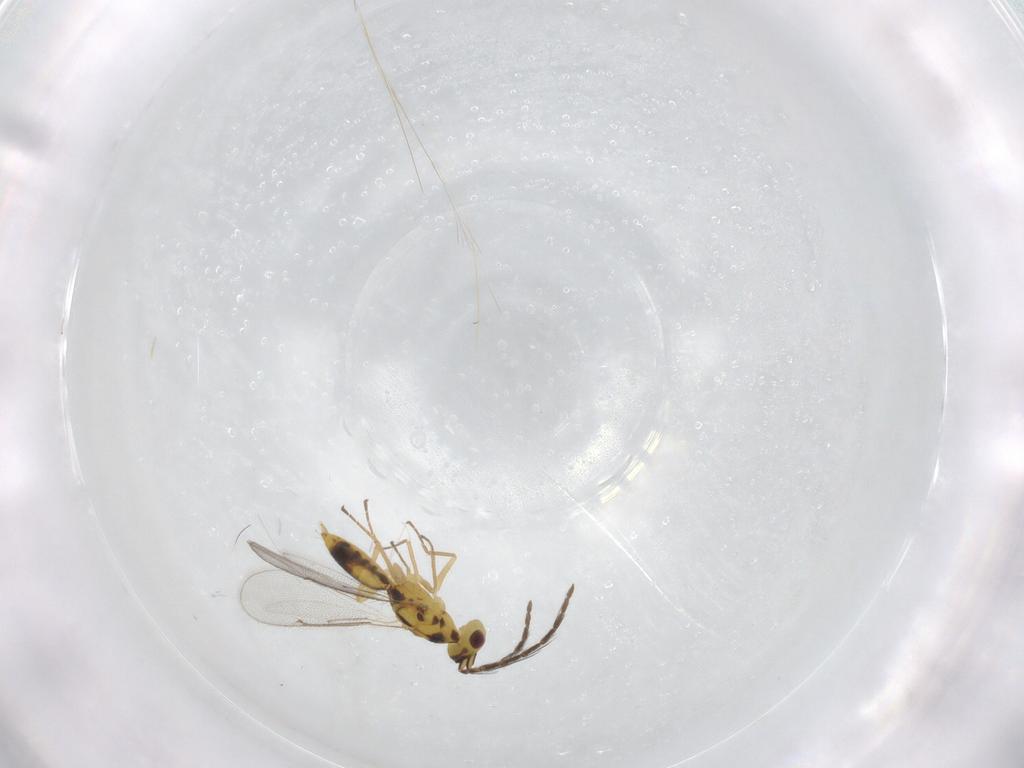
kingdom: Animalia
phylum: Arthropoda
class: Insecta
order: Hymenoptera
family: Eulophidae
